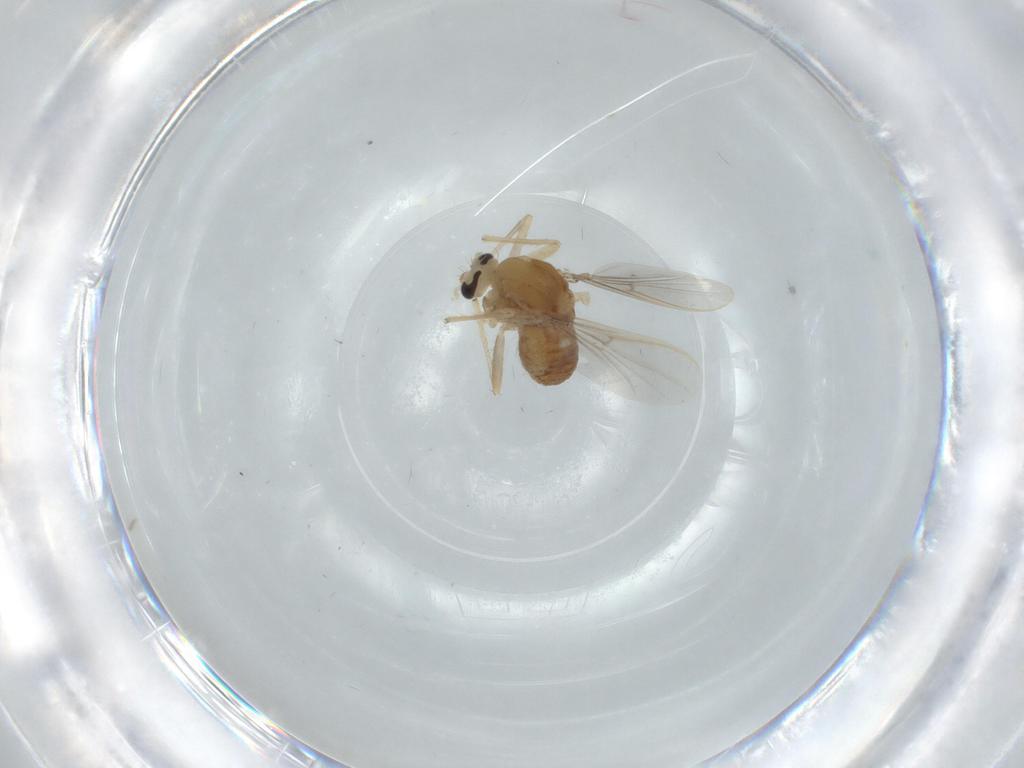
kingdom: Animalia
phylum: Arthropoda
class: Insecta
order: Diptera
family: Chironomidae
